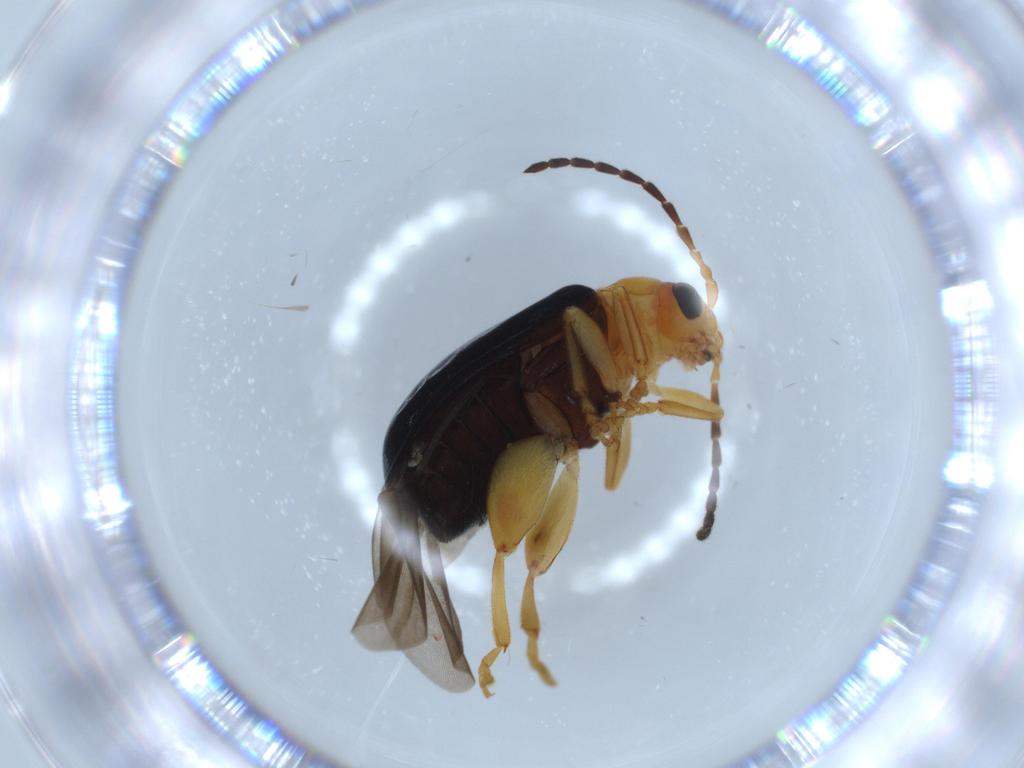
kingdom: Animalia
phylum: Arthropoda
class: Insecta
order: Coleoptera
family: Chrysomelidae
